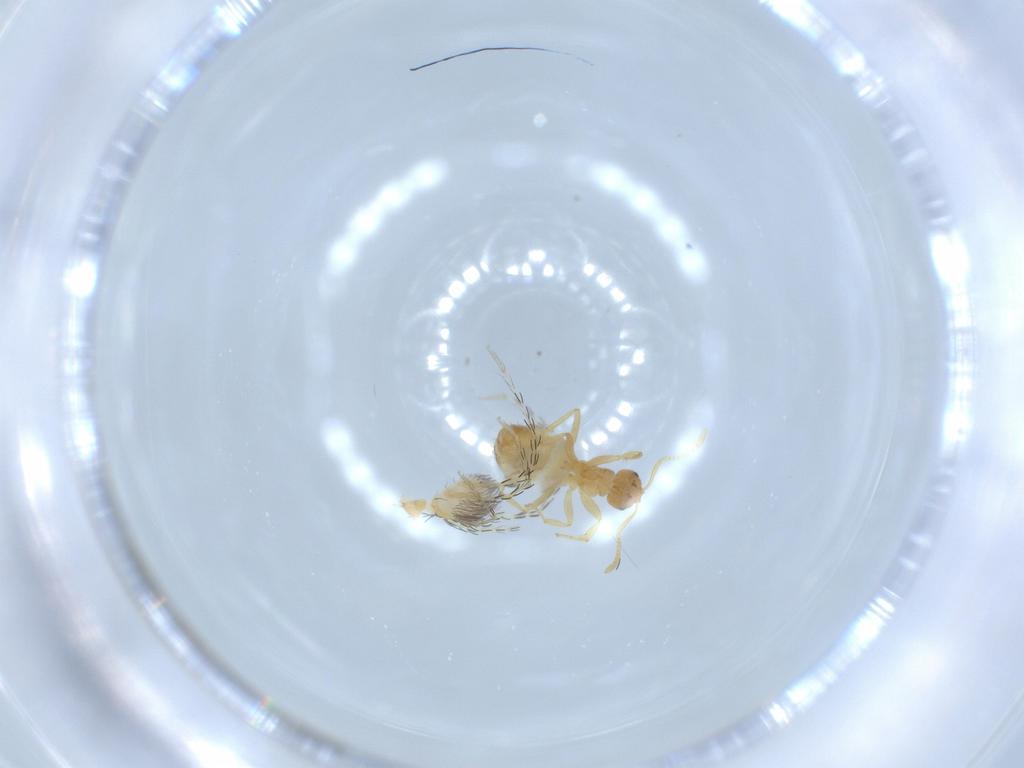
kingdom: Animalia
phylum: Arthropoda
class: Insecta
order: Hymenoptera
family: Formicidae
